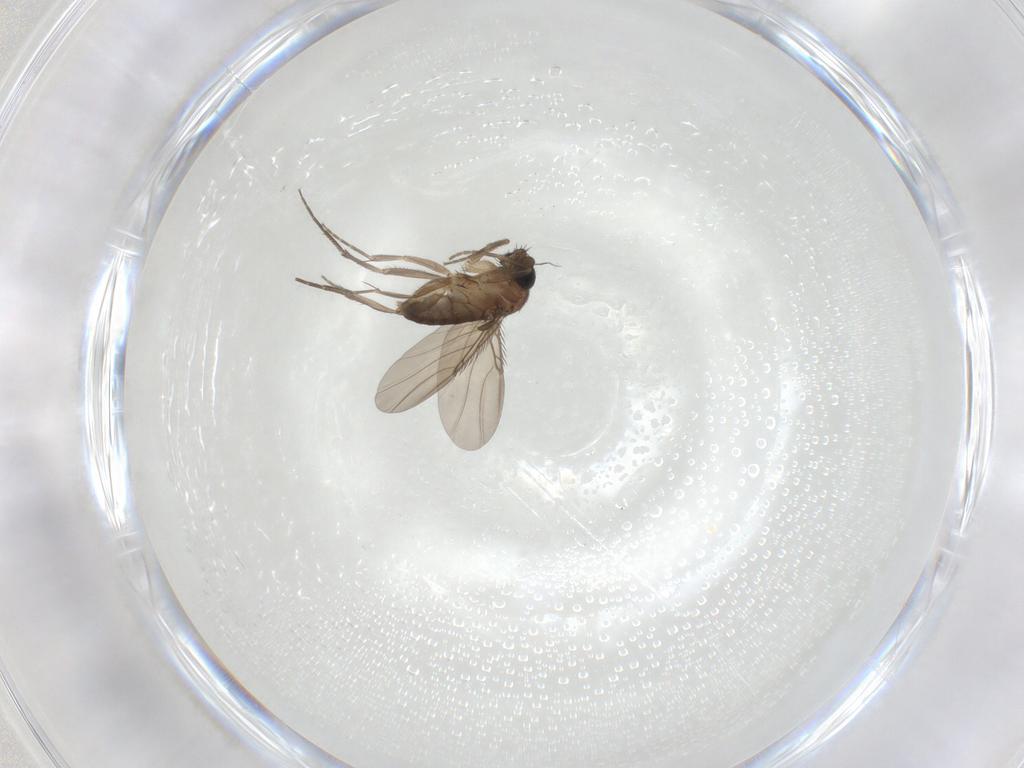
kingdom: Animalia
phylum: Arthropoda
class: Insecta
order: Diptera
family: Phoridae
